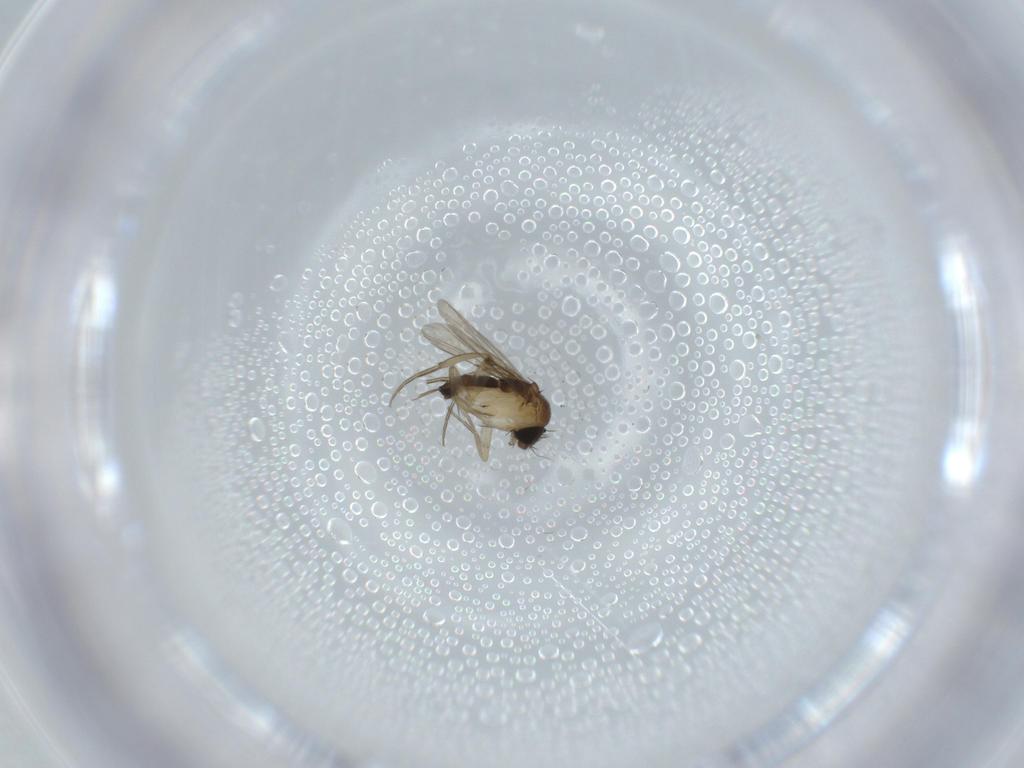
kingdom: Animalia
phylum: Arthropoda
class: Insecta
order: Diptera
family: Phoridae
